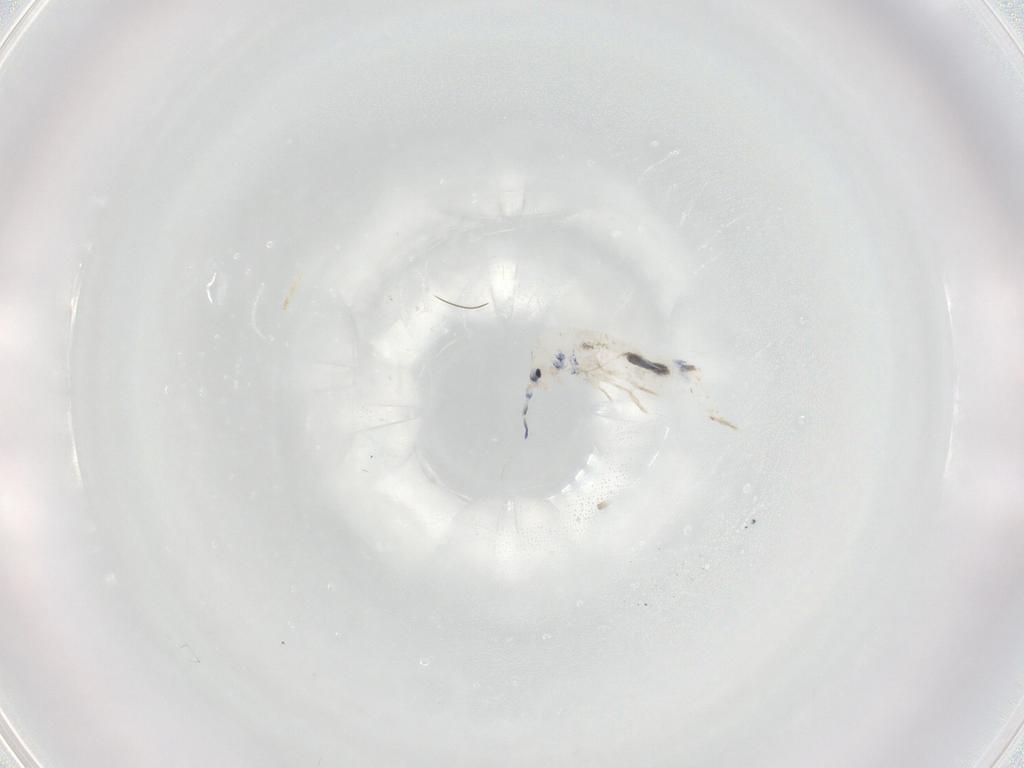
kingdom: Animalia
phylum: Arthropoda
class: Collembola
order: Entomobryomorpha
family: Entomobryidae
